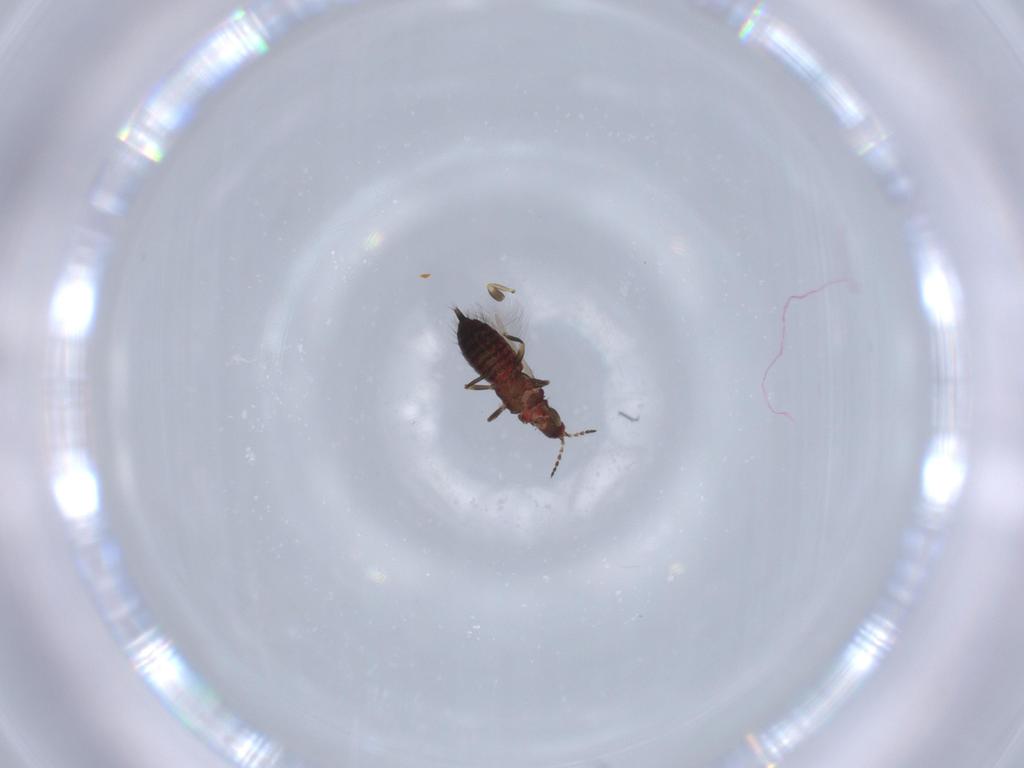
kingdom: Animalia
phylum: Arthropoda
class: Insecta
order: Thysanoptera
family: Phlaeothripidae
